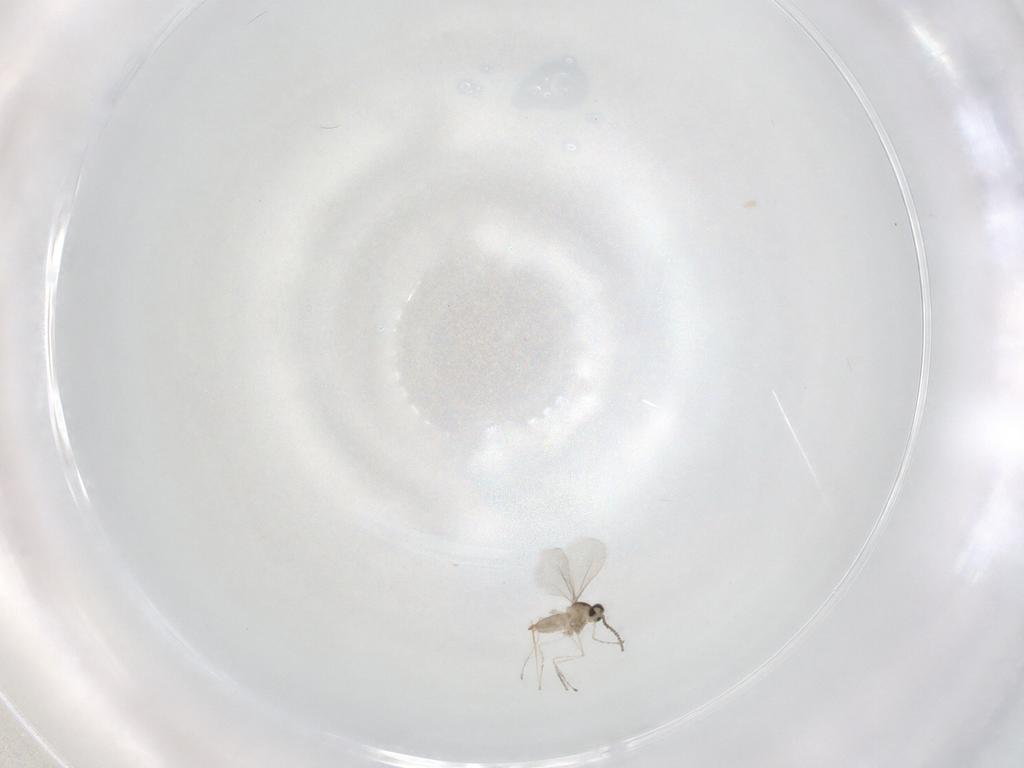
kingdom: Animalia
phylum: Arthropoda
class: Insecta
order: Diptera
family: Cecidomyiidae
